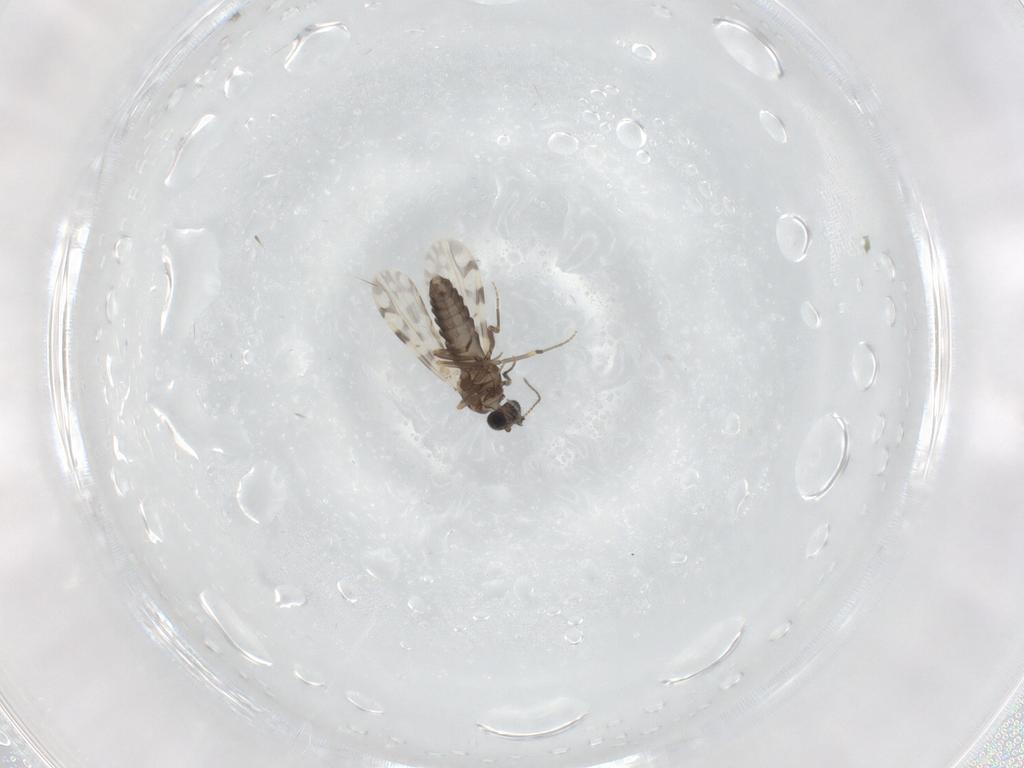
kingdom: Animalia
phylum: Arthropoda
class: Insecta
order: Diptera
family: Ceratopogonidae
